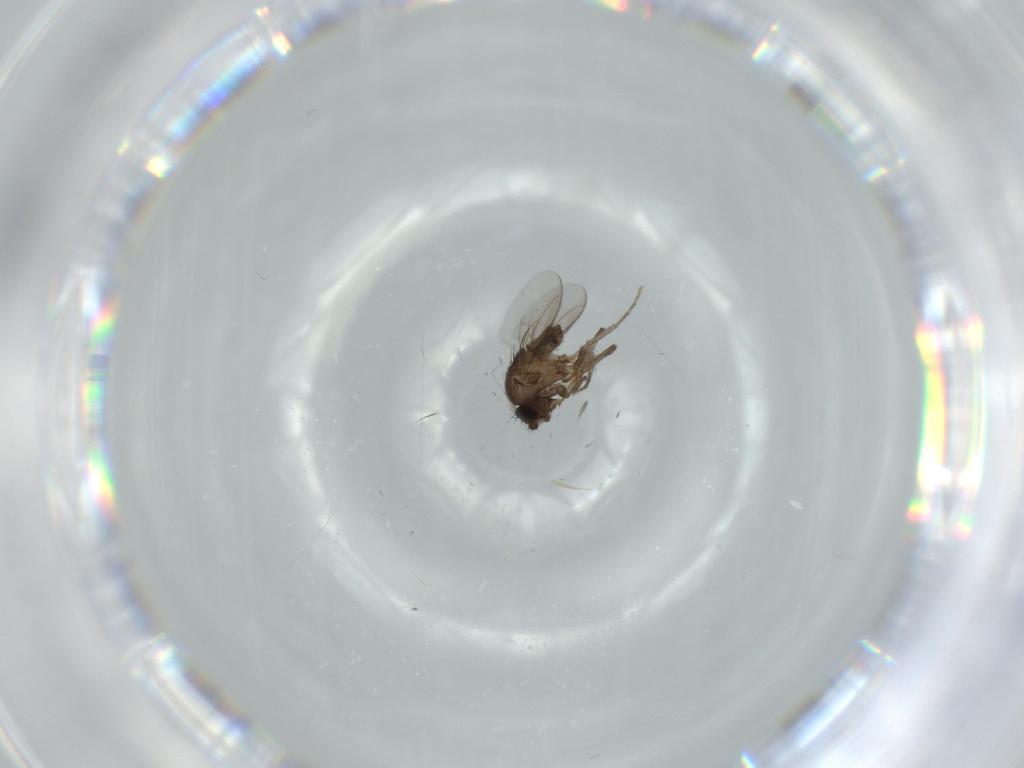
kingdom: Animalia
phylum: Arthropoda
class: Insecta
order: Diptera
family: Sphaeroceridae
